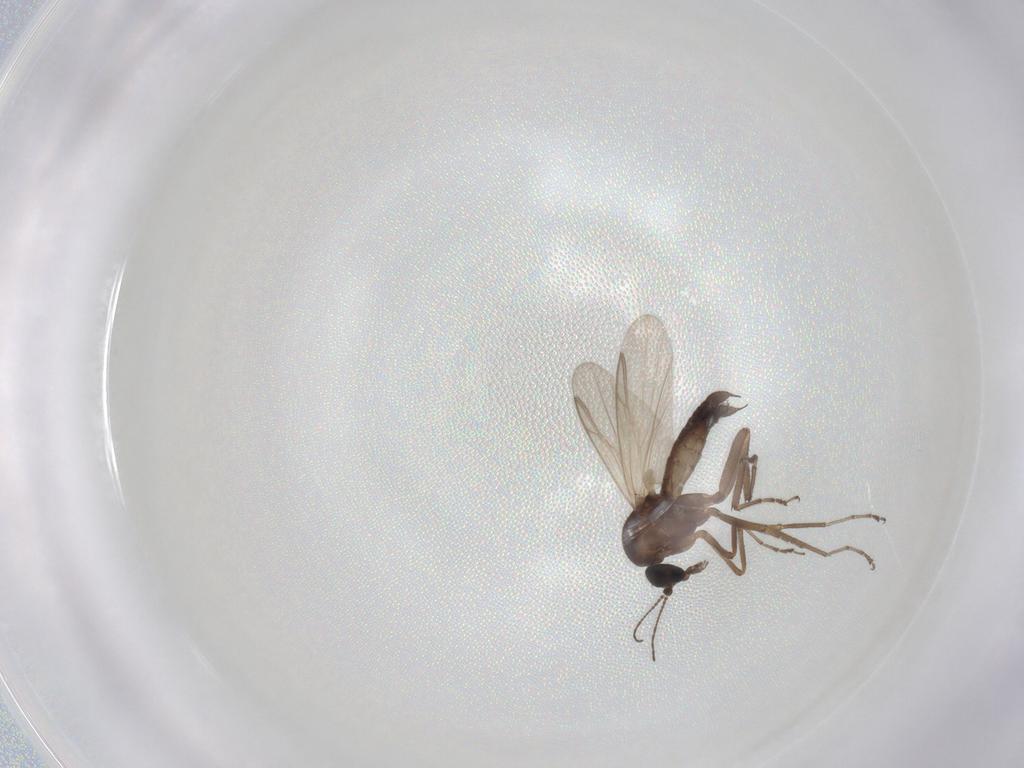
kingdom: Animalia
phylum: Arthropoda
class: Insecta
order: Diptera
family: Ceratopogonidae
